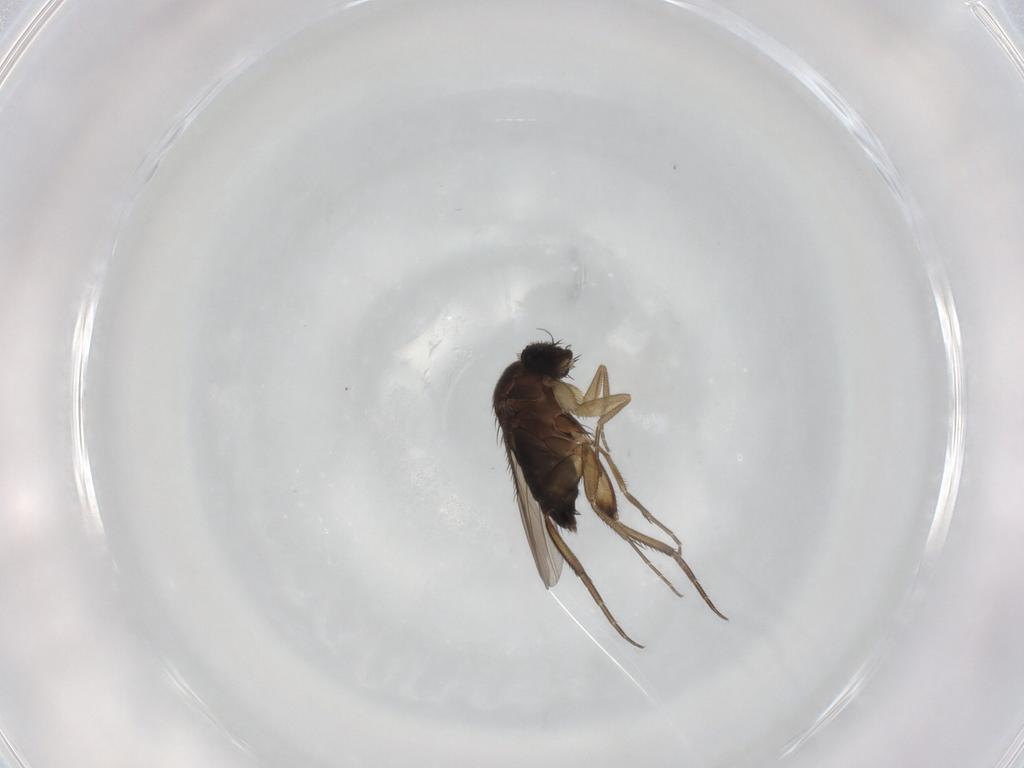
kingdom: Animalia
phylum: Arthropoda
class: Insecta
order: Diptera
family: Phoridae
